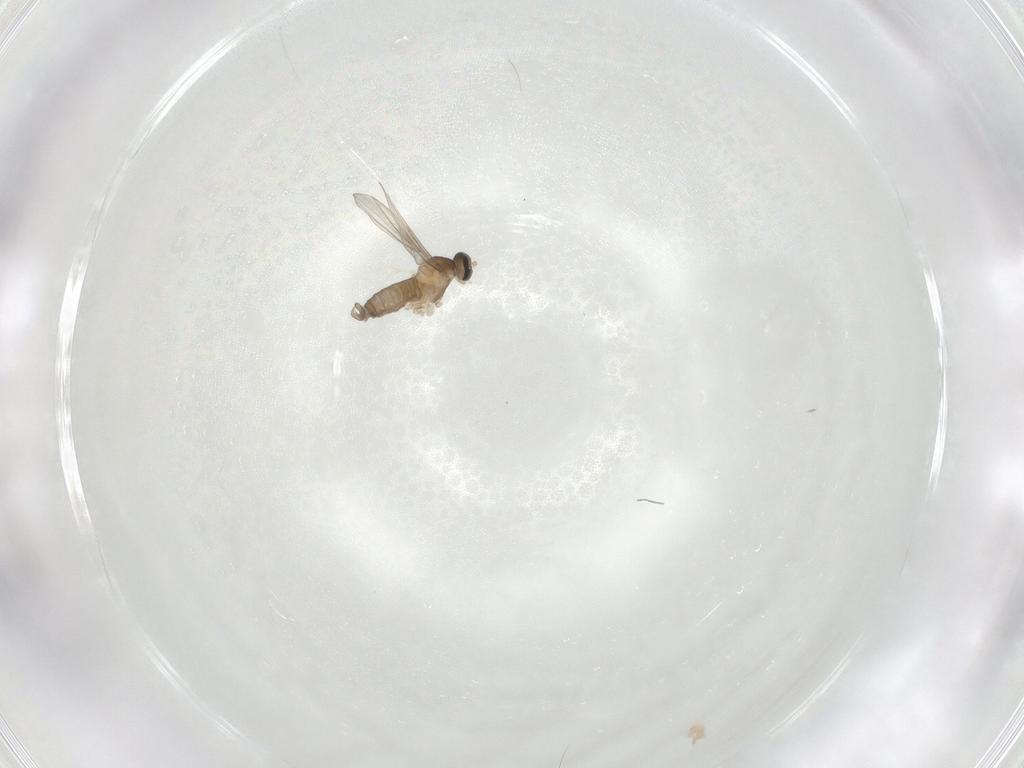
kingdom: Animalia
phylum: Arthropoda
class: Insecta
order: Diptera
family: Cecidomyiidae
